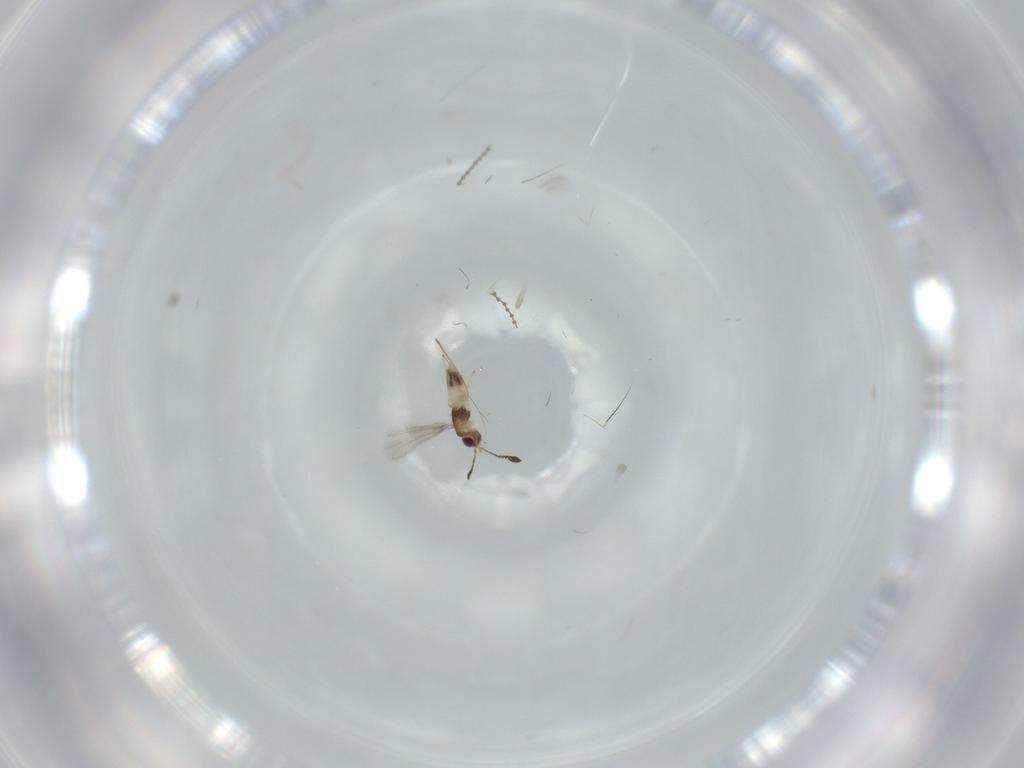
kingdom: Animalia
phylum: Arthropoda
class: Insecta
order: Hymenoptera
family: Mymaridae
